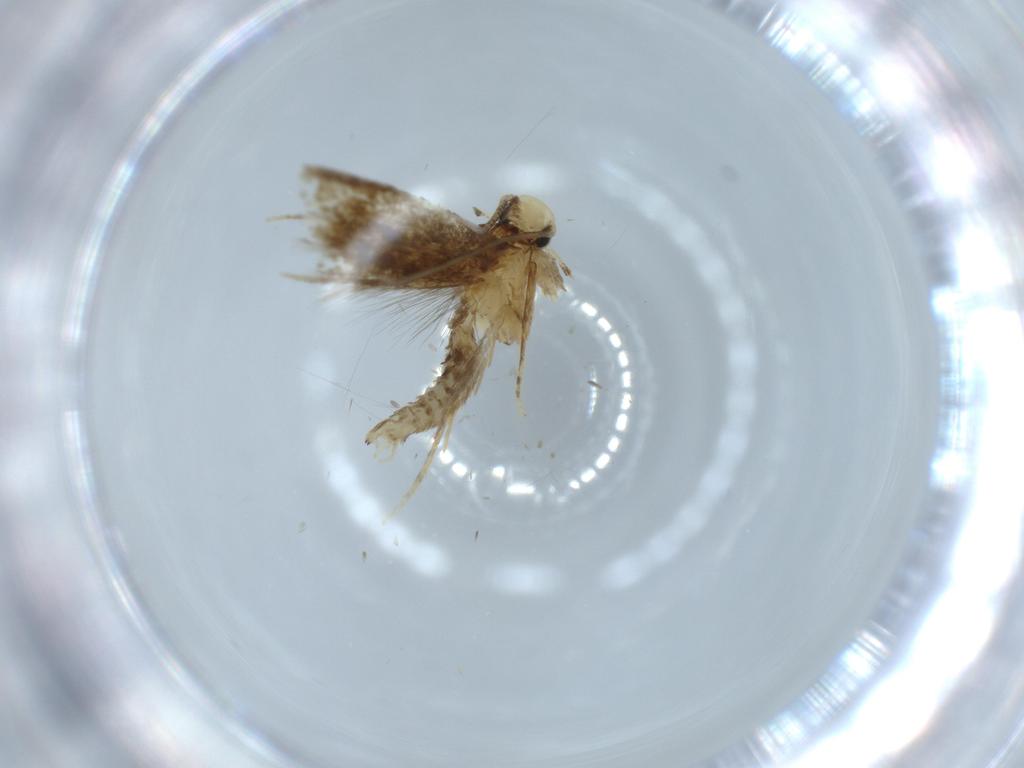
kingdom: Animalia
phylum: Arthropoda
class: Insecta
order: Lepidoptera
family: Tineidae
